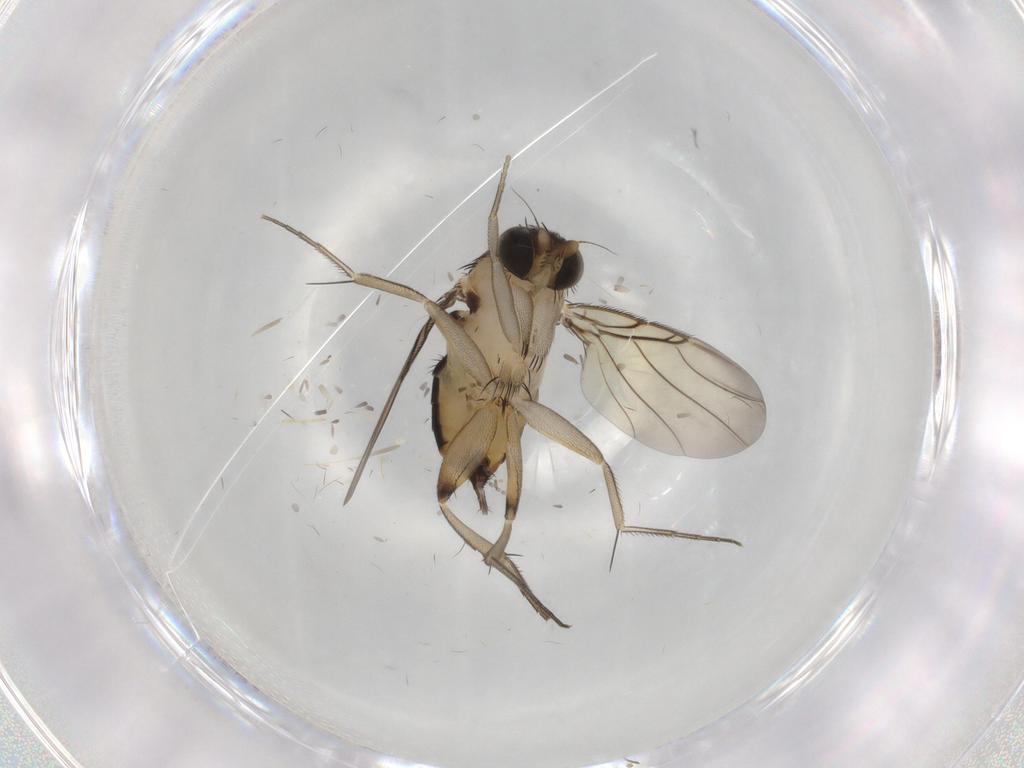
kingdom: Animalia
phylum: Arthropoda
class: Insecta
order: Diptera
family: Phoridae
